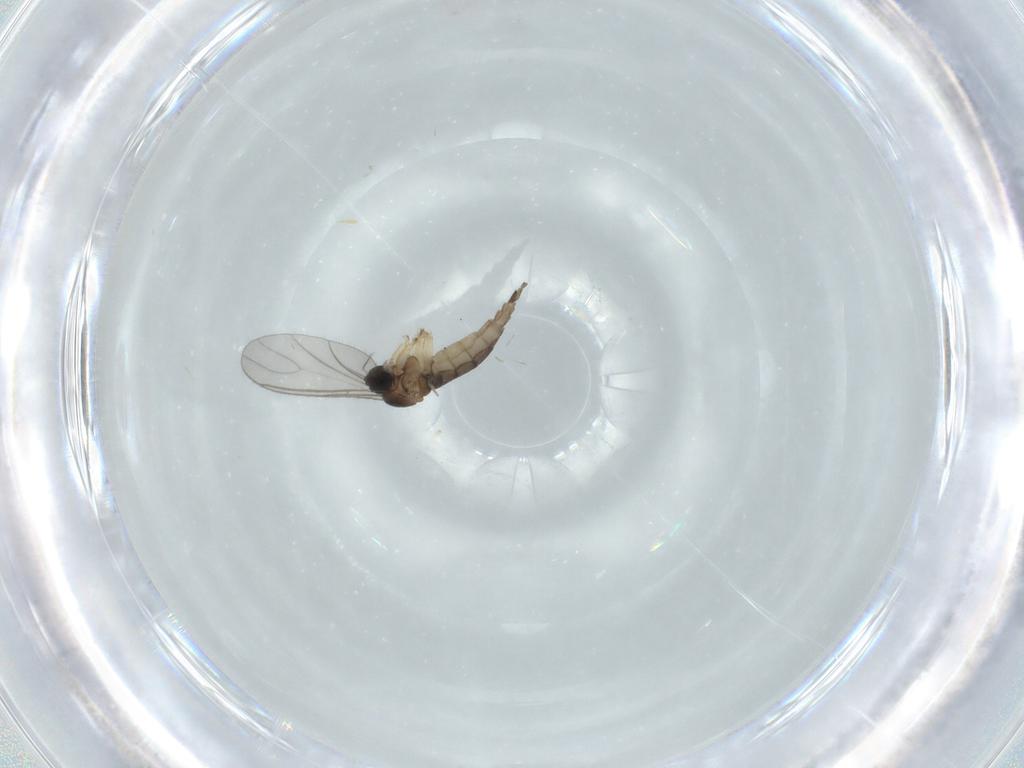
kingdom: Animalia
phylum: Arthropoda
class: Insecta
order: Diptera
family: Sciaridae
